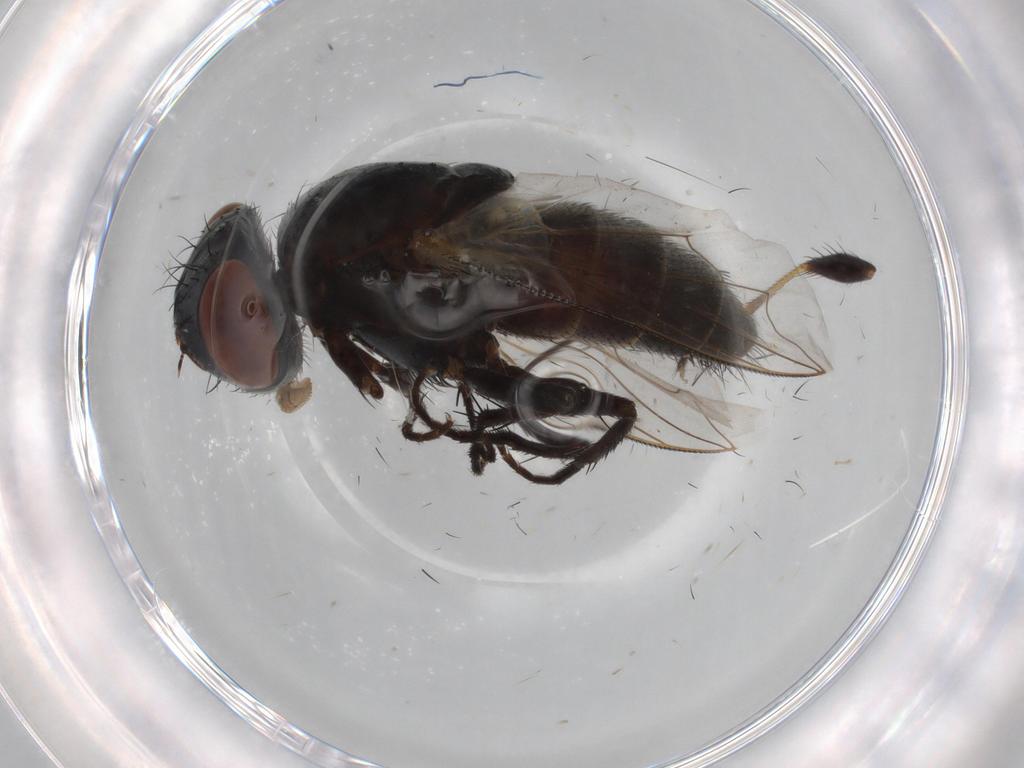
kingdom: Animalia
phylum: Arthropoda
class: Insecta
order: Diptera
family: Sarcophagidae
